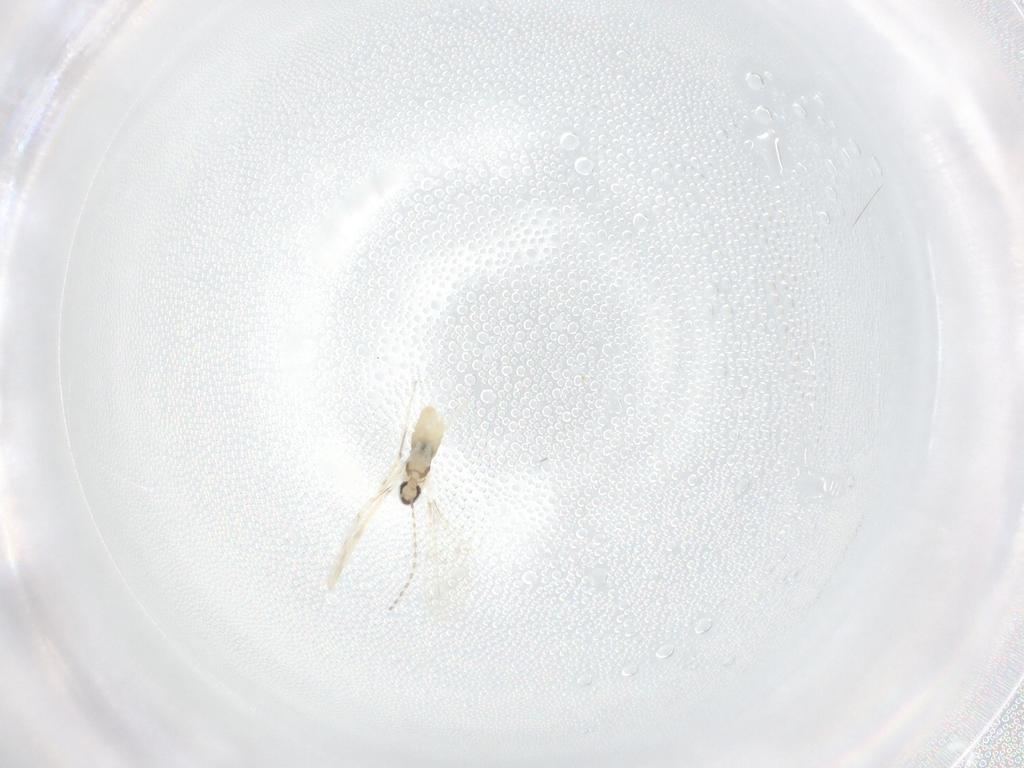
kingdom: Animalia
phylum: Arthropoda
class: Insecta
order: Diptera
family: Cecidomyiidae
